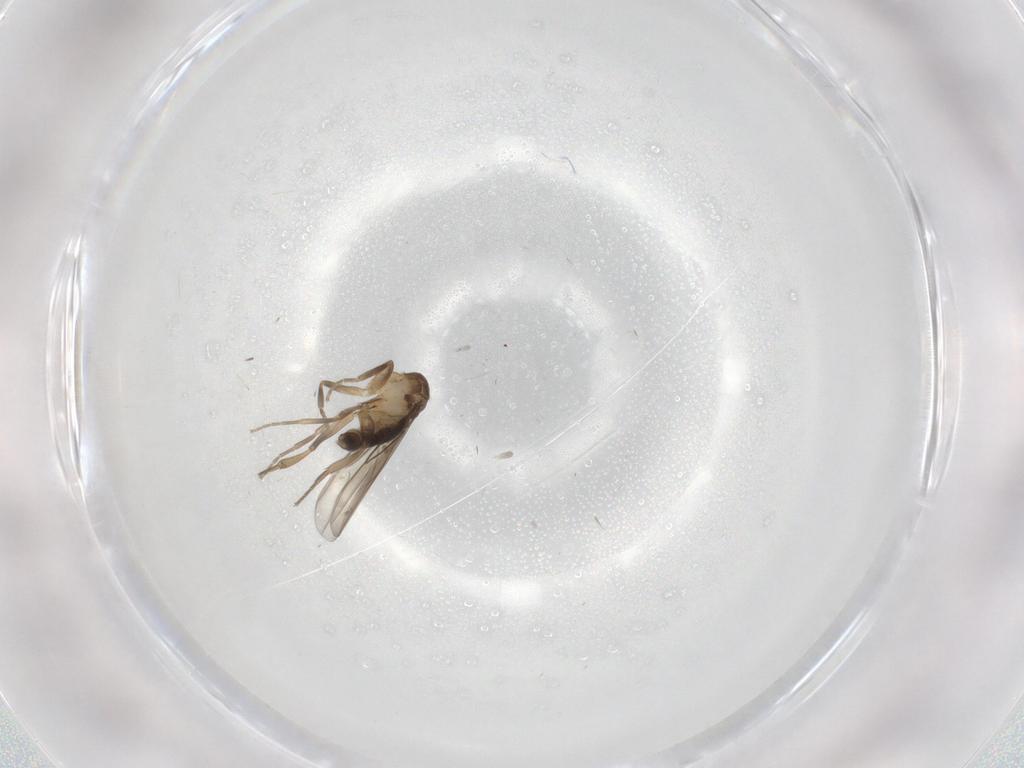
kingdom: Animalia
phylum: Arthropoda
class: Insecta
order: Diptera
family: Phoridae
